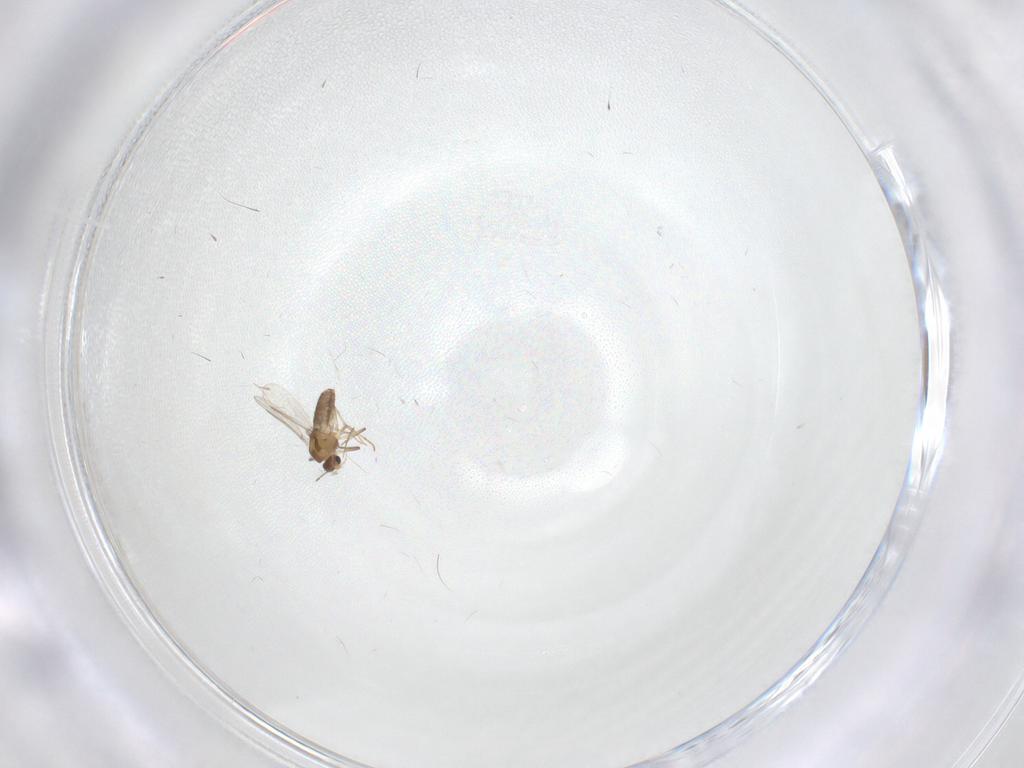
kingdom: Animalia
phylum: Arthropoda
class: Insecta
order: Diptera
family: Chironomidae
